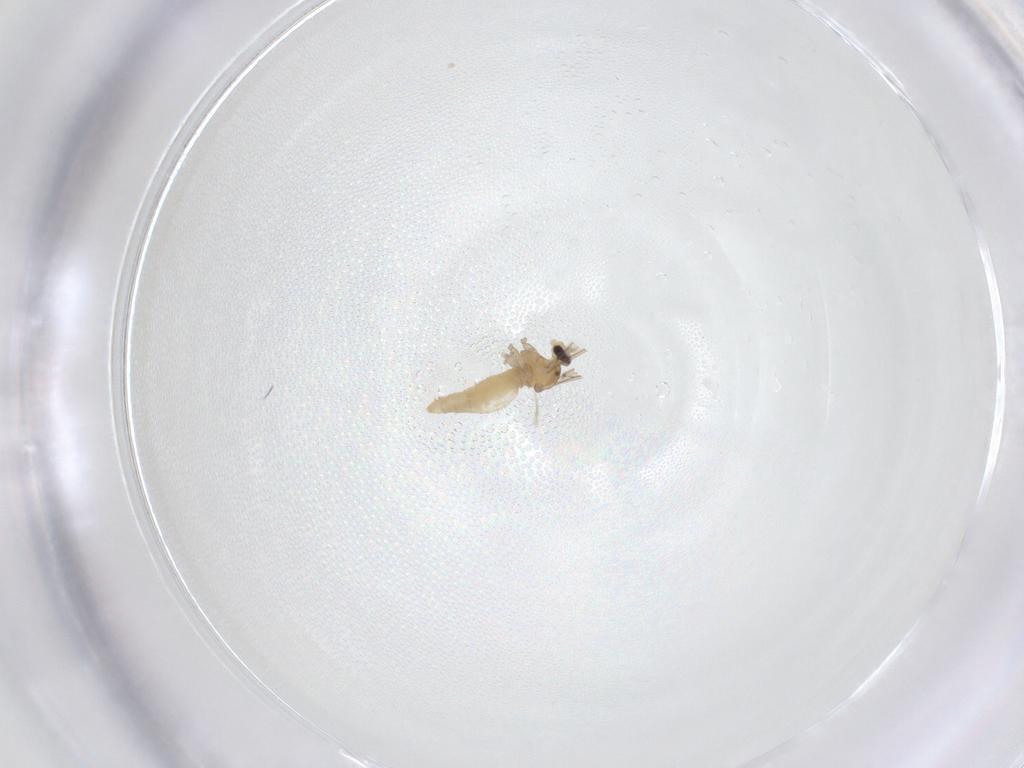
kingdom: Animalia
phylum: Arthropoda
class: Insecta
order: Diptera
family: Cecidomyiidae
